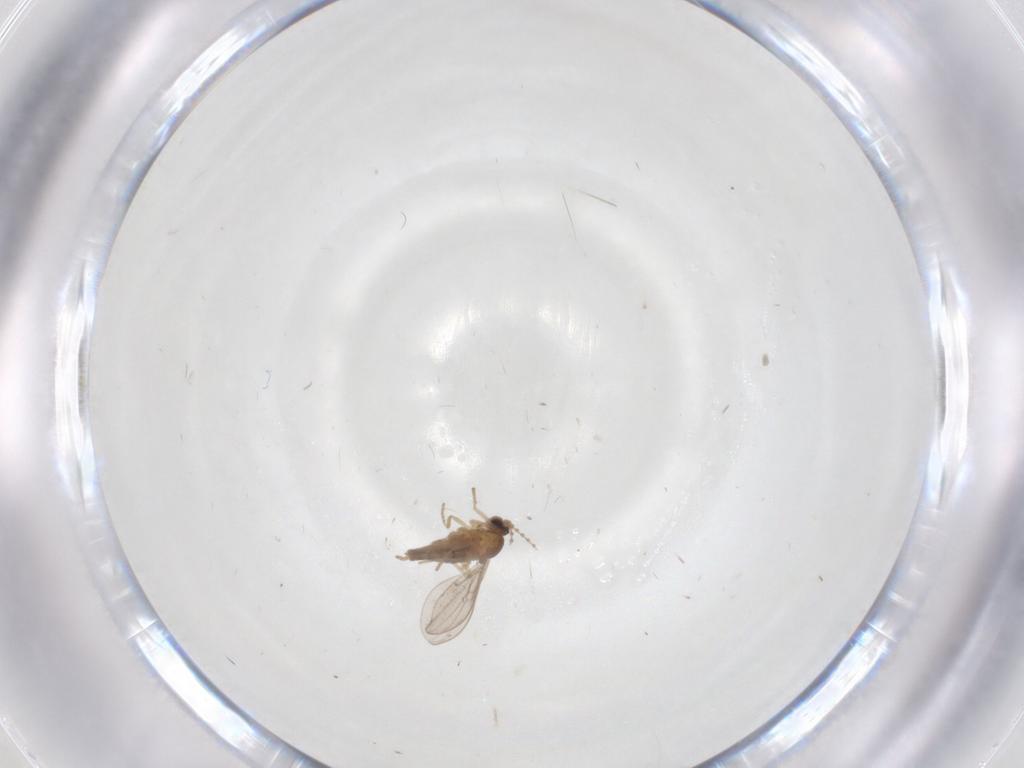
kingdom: Animalia
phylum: Arthropoda
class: Insecta
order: Diptera
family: Cecidomyiidae
